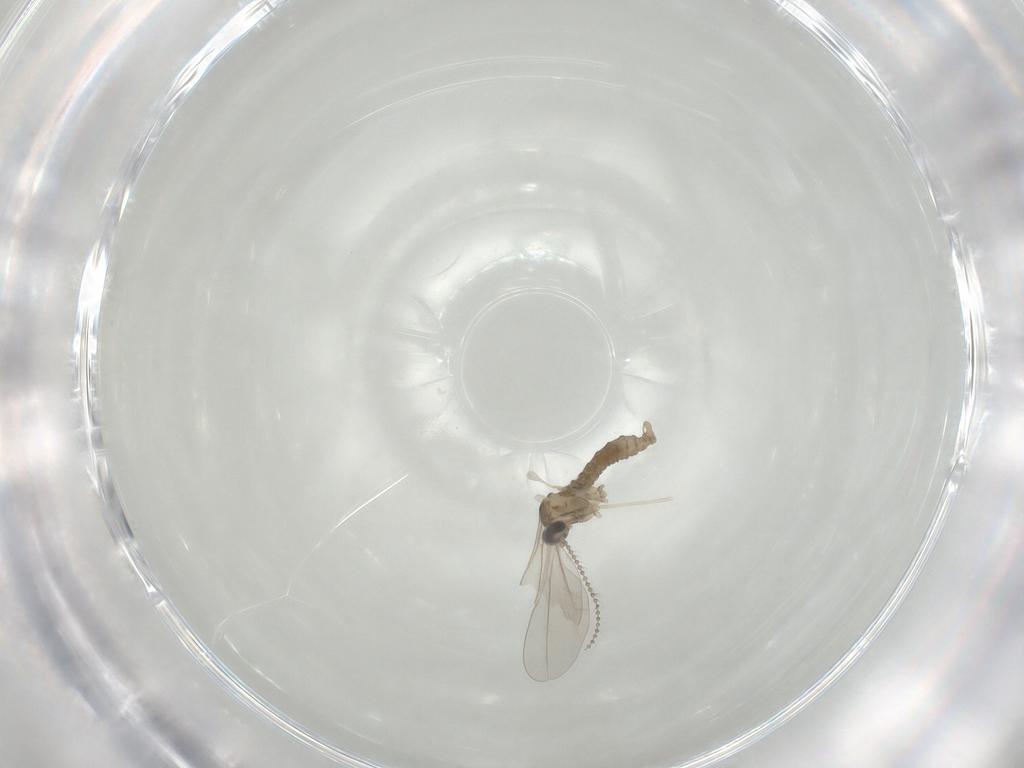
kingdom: Animalia
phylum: Arthropoda
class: Insecta
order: Diptera
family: Cecidomyiidae
